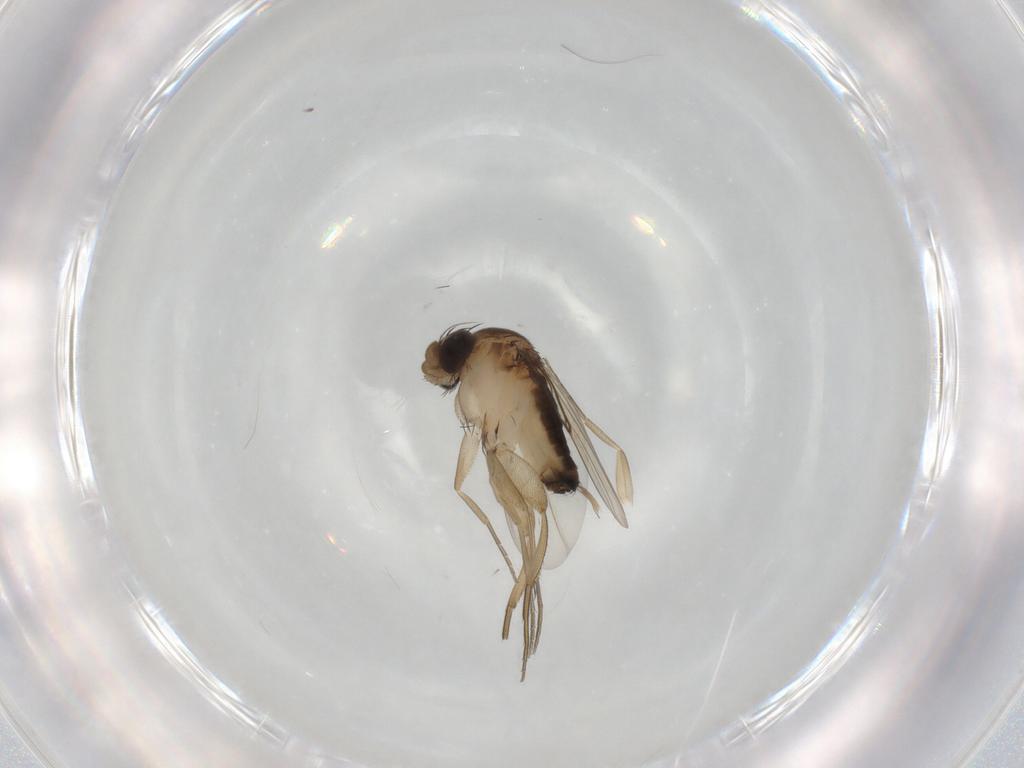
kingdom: Animalia
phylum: Arthropoda
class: Insecta
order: Diptera
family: Phoridae
